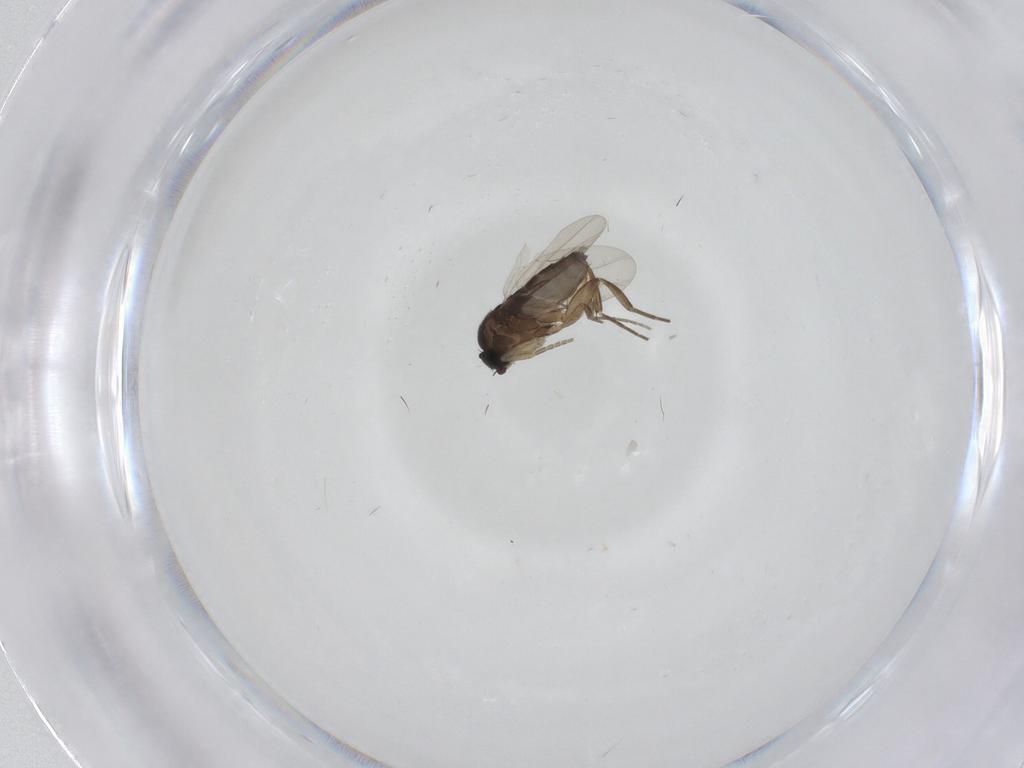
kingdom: Animalia
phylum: Arthropoda
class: Insecta
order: Diptera
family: Phoridae
